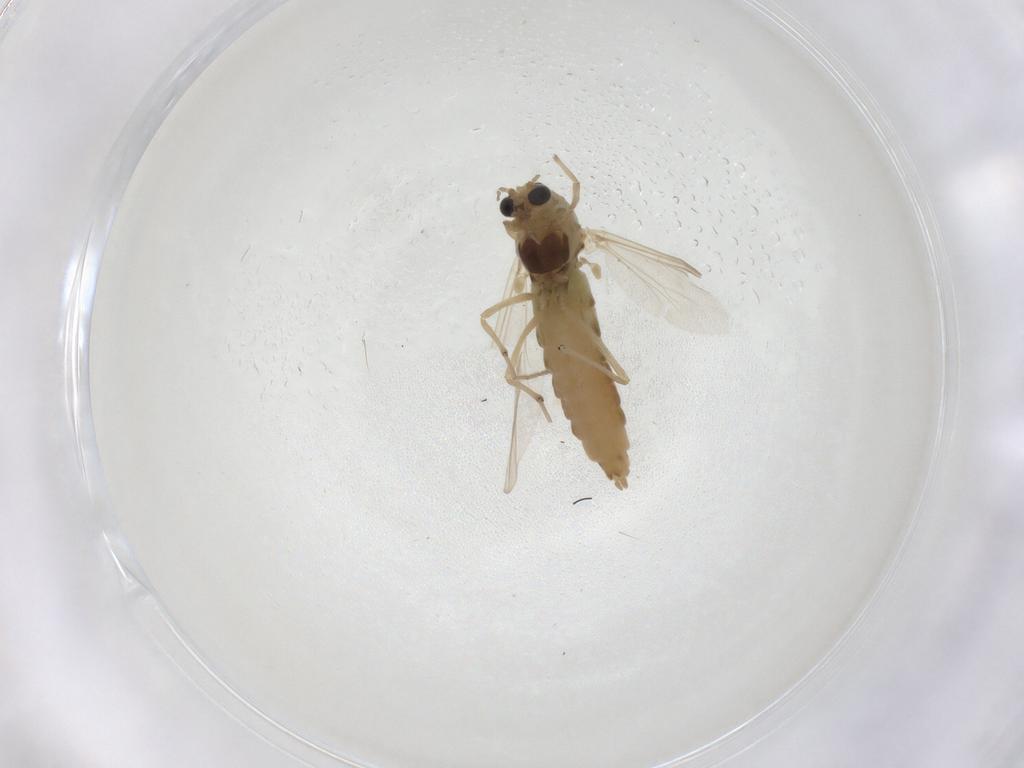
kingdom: Animalia
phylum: Arthropoda
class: Insecta
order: Diptera
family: Chironomidae
